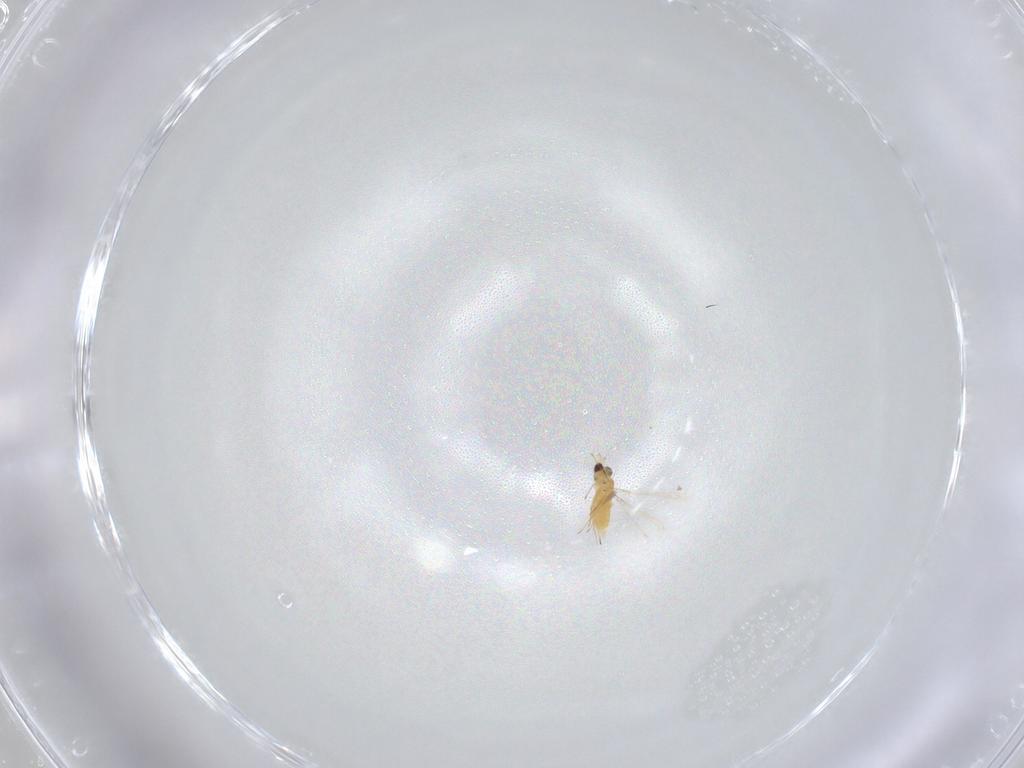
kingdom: Animalia
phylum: Arthropoda
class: Insecta
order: Hymenoptera
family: Mymaridae
